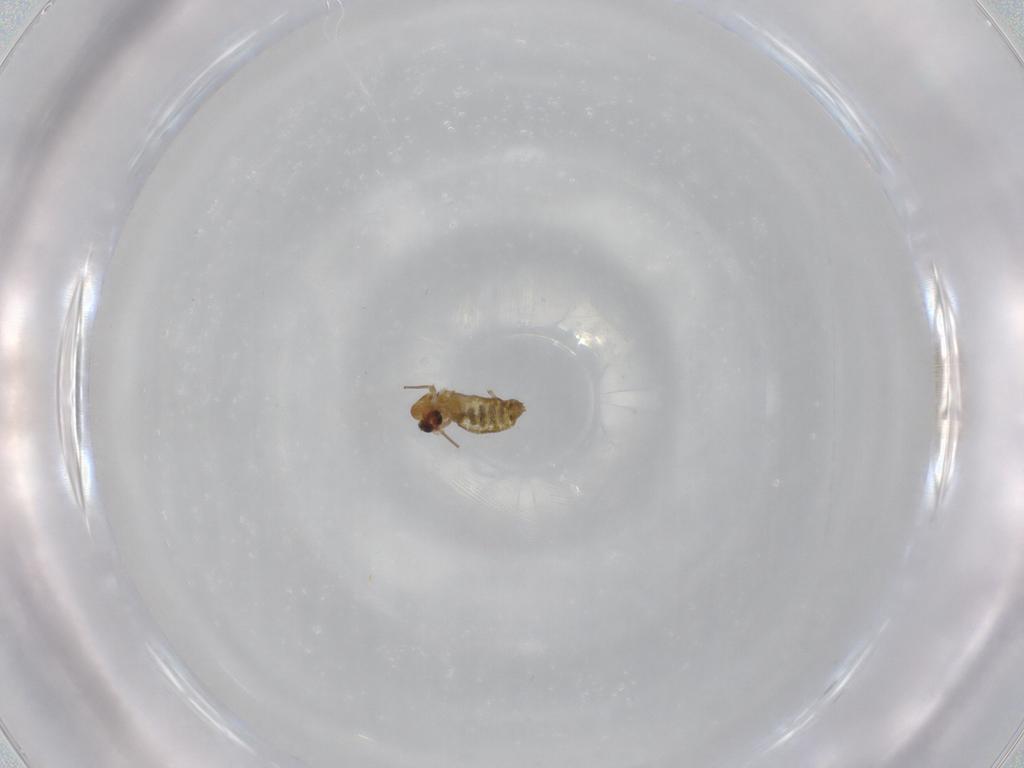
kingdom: Animalia
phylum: Arthropoda
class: Insecta
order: Diptera
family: Chironomidae
